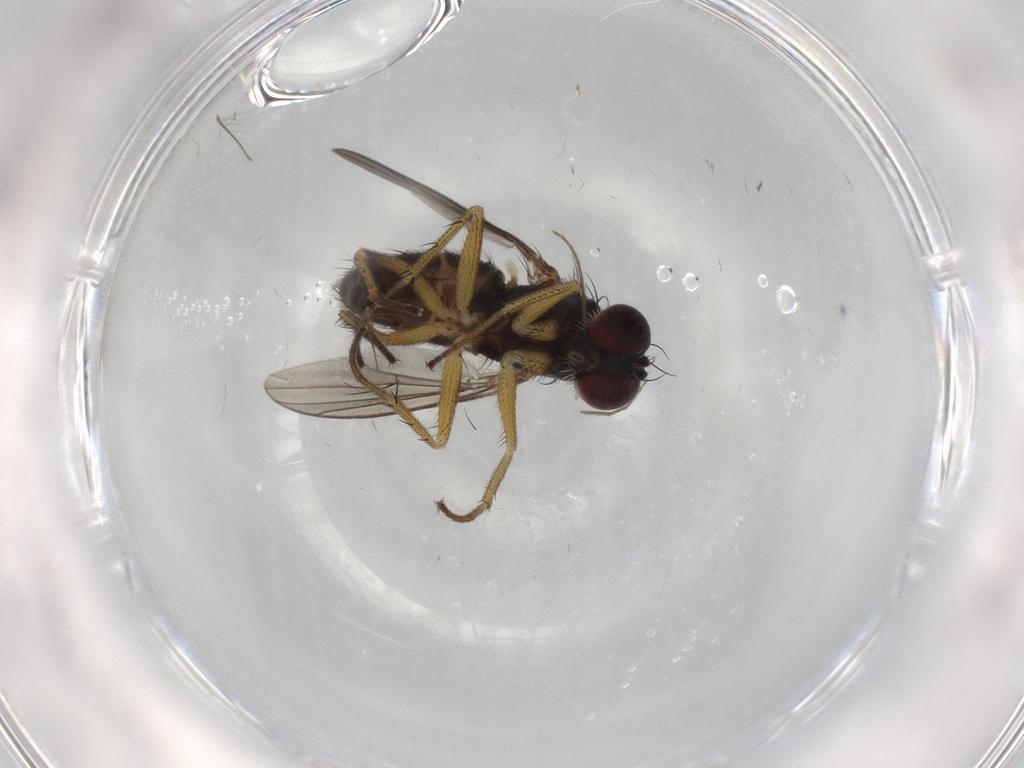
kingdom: Animalia
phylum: Arthropoda
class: Insecta
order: Diptera
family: Dolichopodidae
